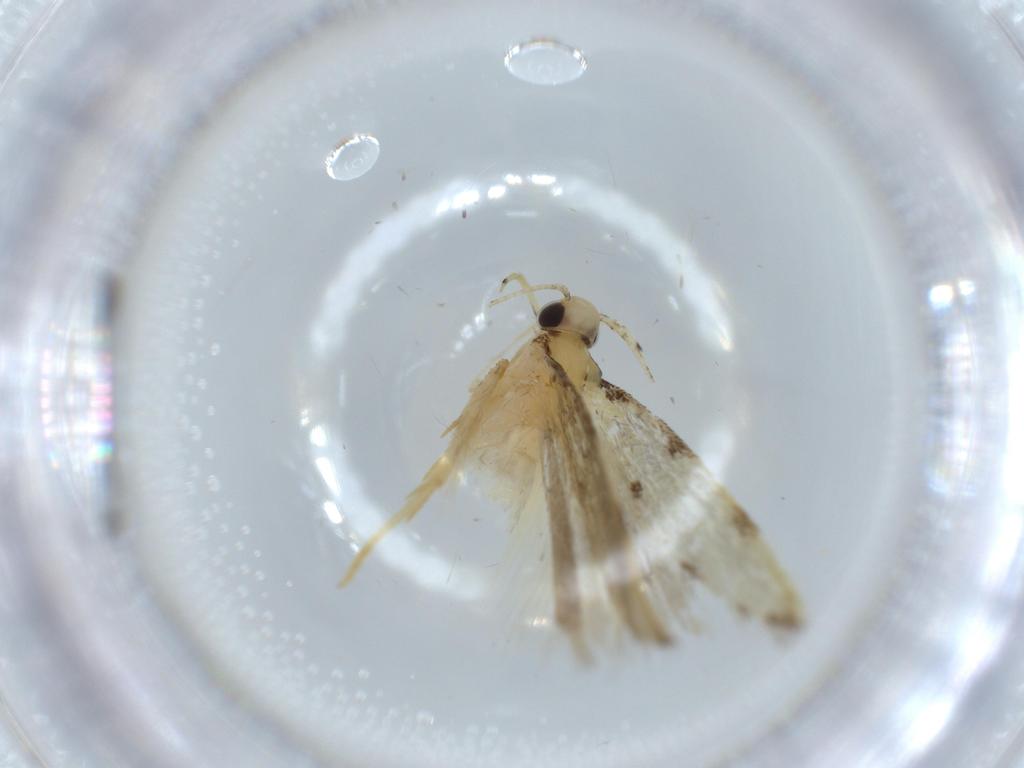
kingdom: Animalia
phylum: Arthropoda
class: Insecta
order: Lepidoptera
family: Autostichidae
